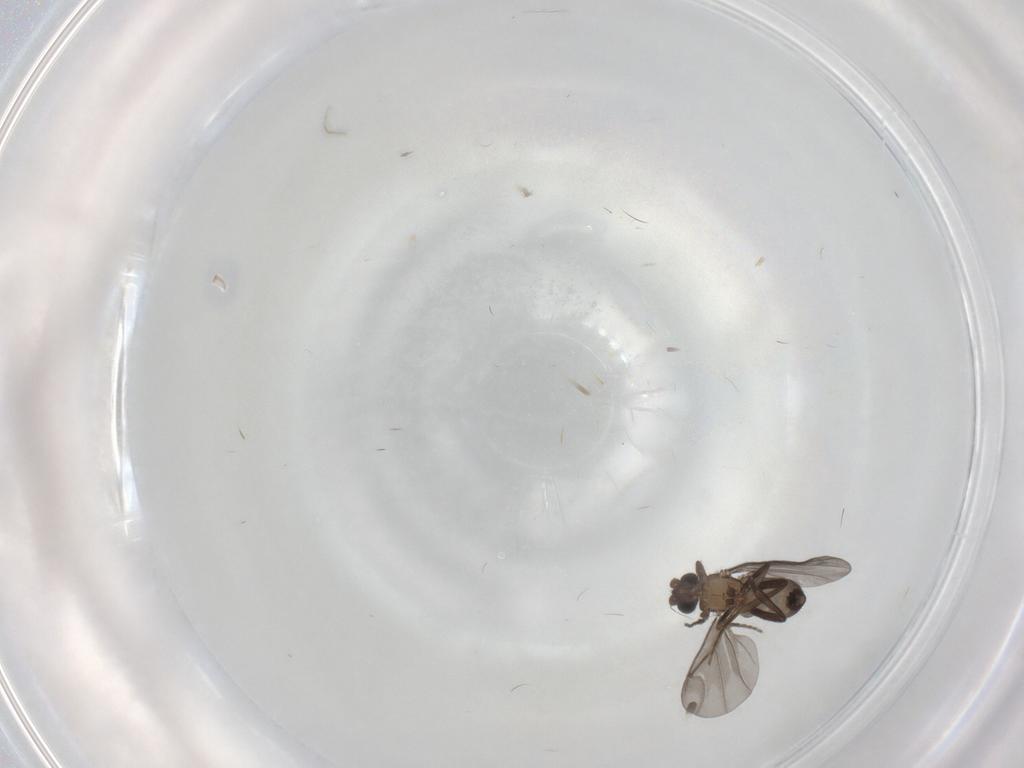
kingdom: Animalia
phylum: Arthropoda
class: Insecta
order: Diptera
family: Phoridae
